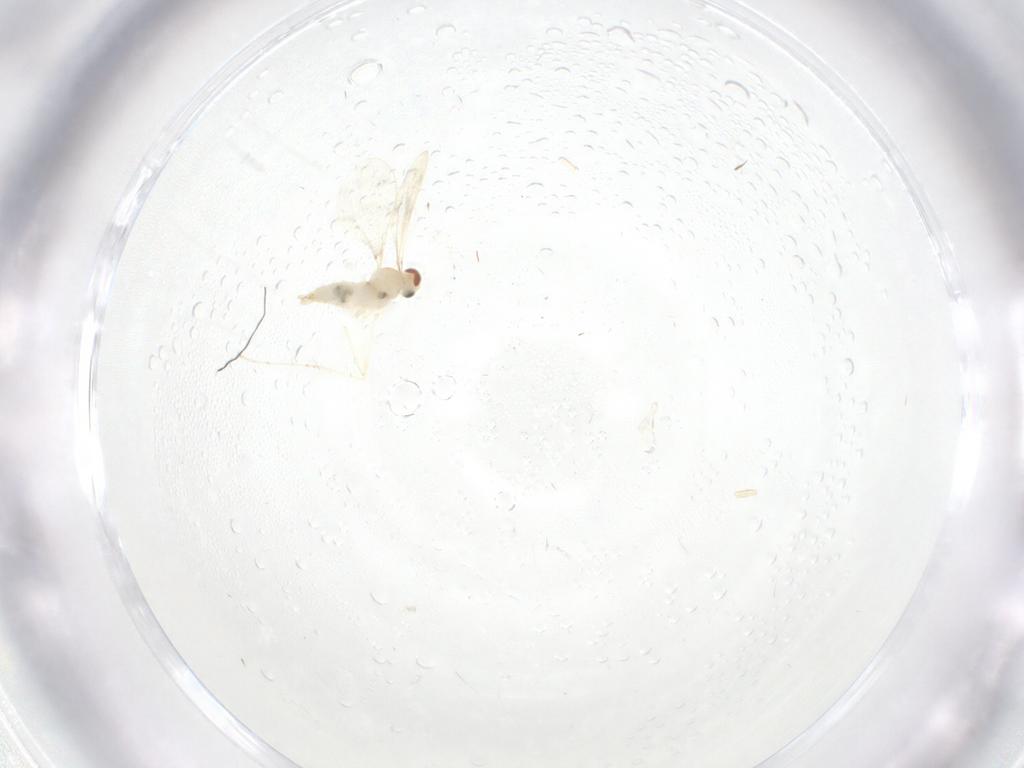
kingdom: Animalia
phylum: Arthropoda
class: Insecta
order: Diptera
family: Cecidomyiidae
